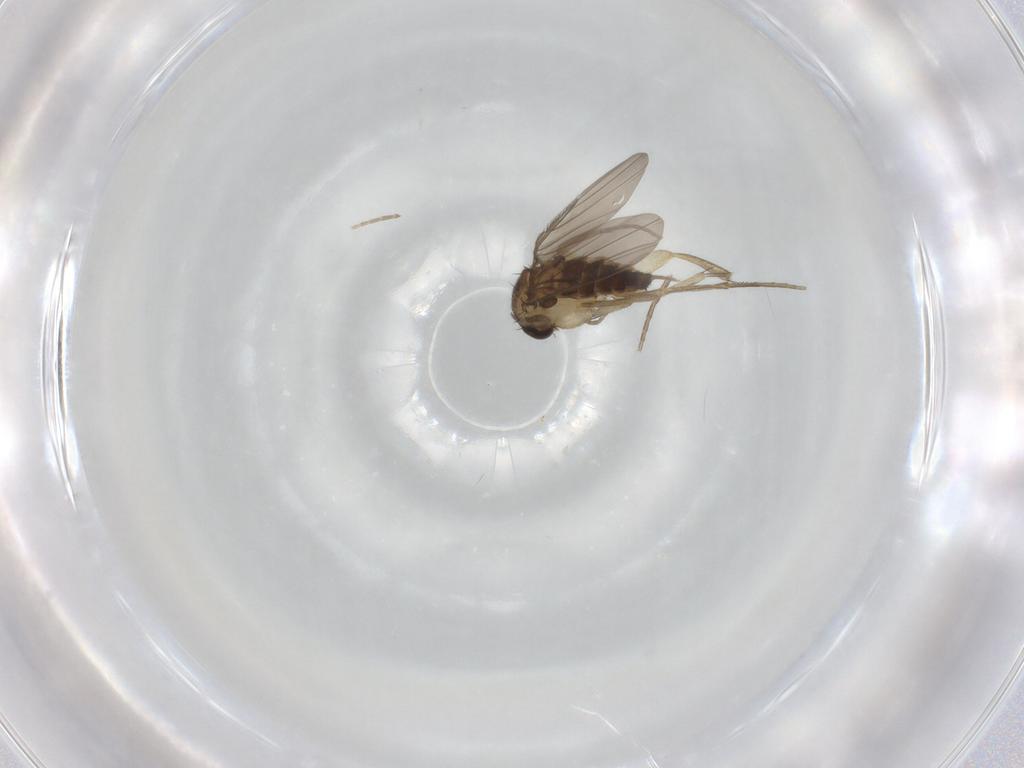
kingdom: Animalia
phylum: Arthropoda
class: Insecta
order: Diptera
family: Phoridae
